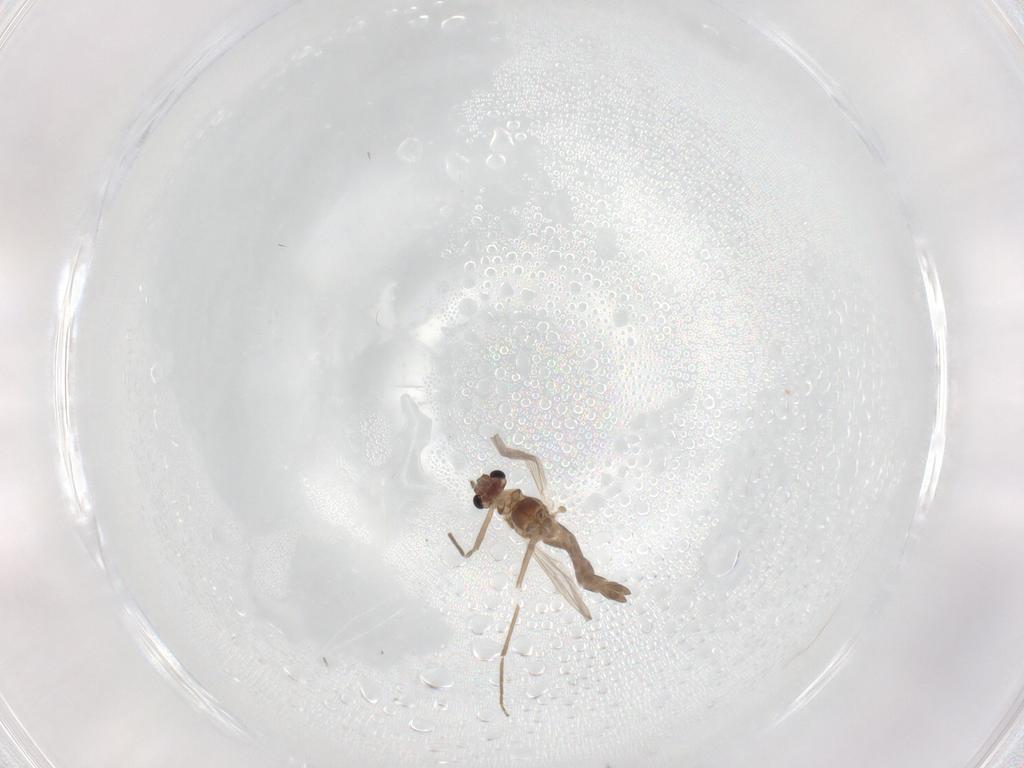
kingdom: Animalia
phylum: Arthropoda
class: Insecta
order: Diptera
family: Chironomidae
